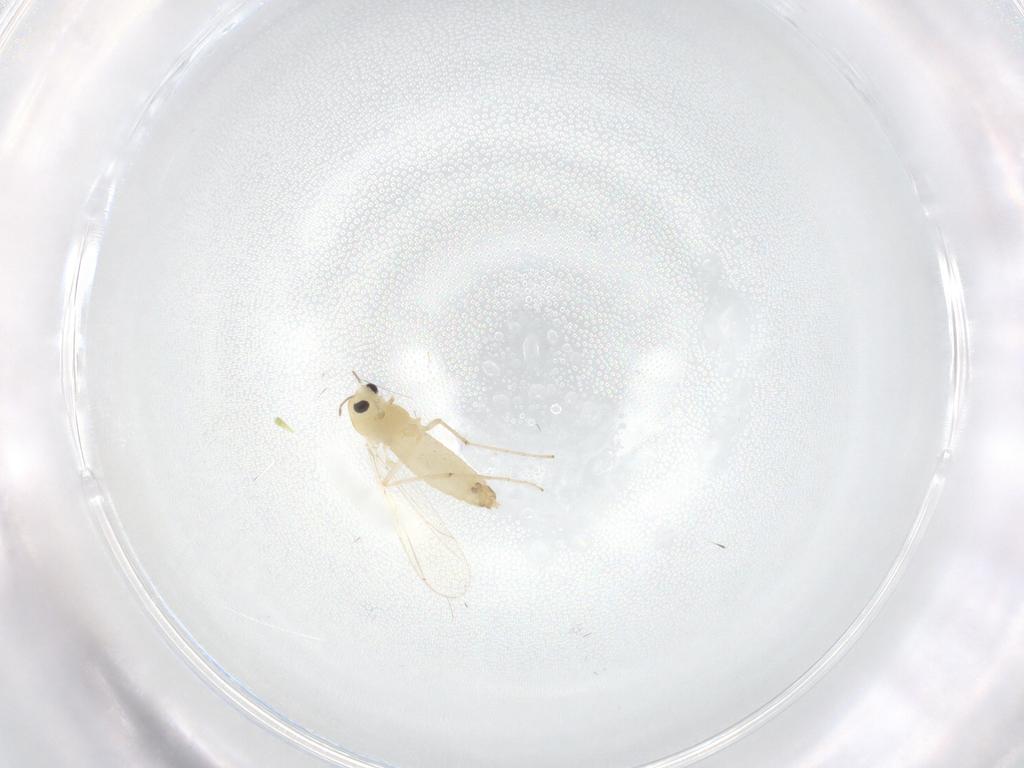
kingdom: Animalia
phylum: Arthropoda
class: Insecta
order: Diptera
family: Chironomidae
